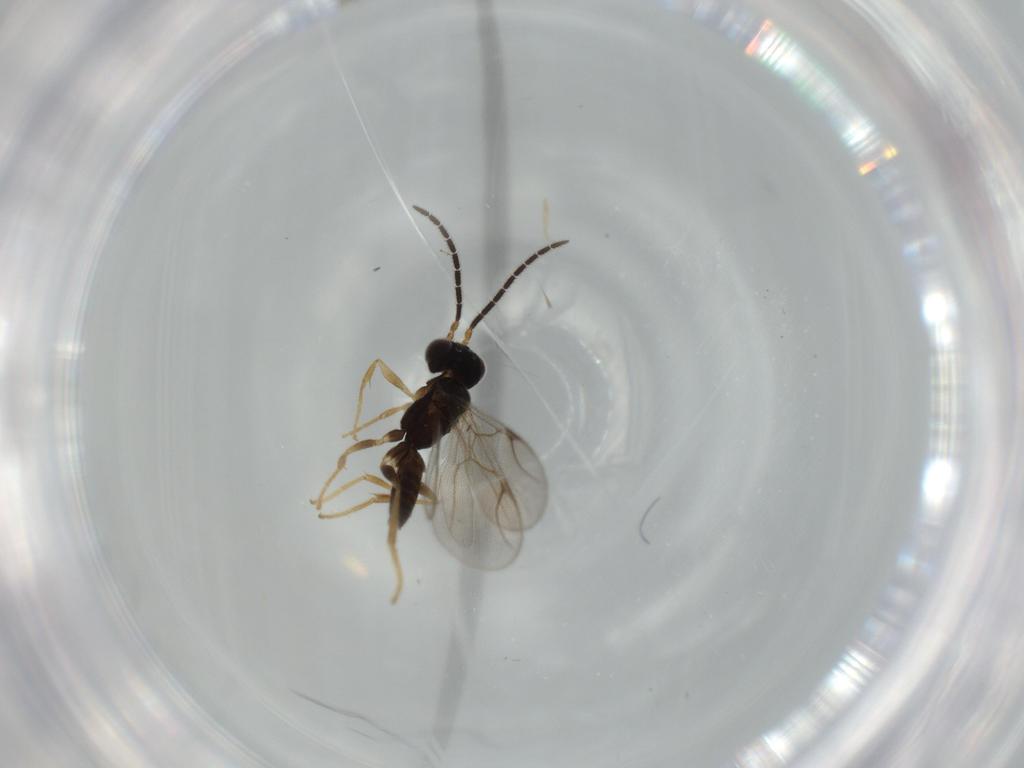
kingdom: Animalia
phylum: Arthropoda
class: Insecta
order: Hymenoptera
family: Dryinidae
